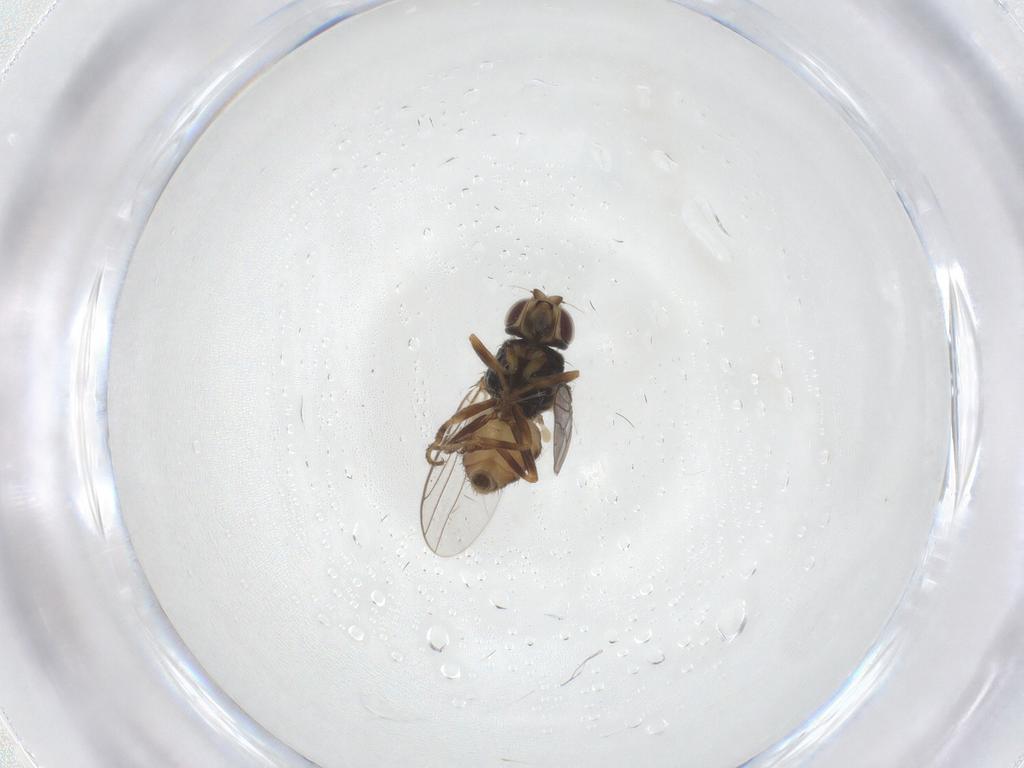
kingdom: Animalia
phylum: Arthropoda
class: Insecta
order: Diptera
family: Chloropidae
